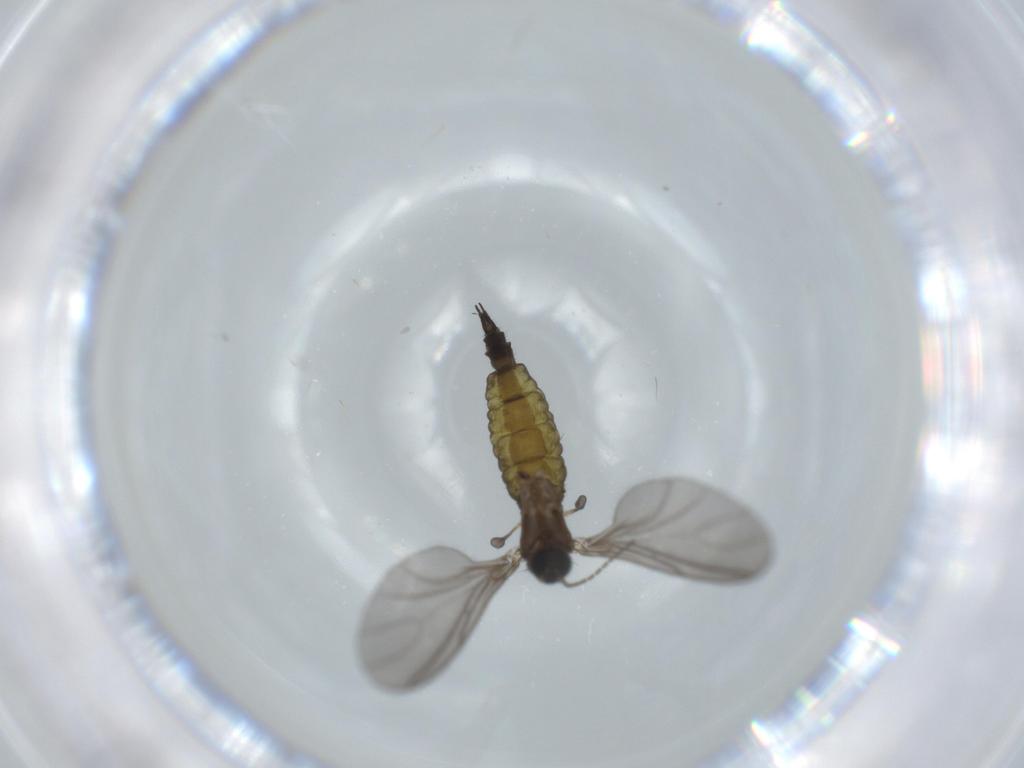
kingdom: Animalia
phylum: Arthropoda
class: Insecta
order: Diptera
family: Sciaridae
